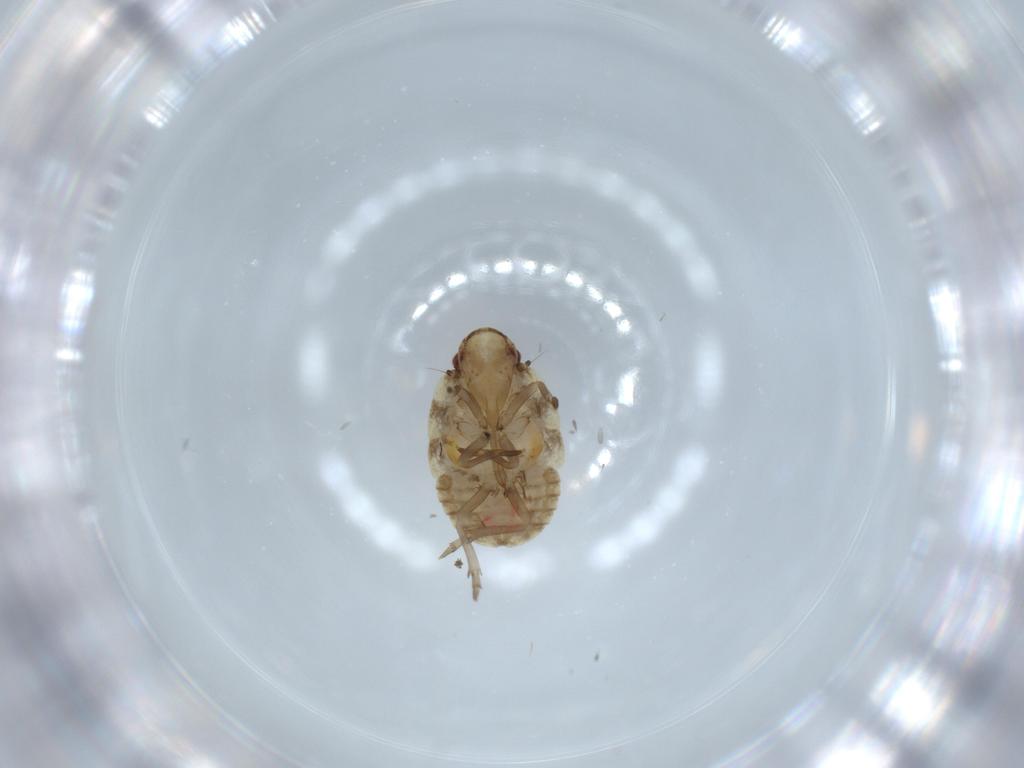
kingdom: Animalia
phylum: Arthropoda
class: Insecta
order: Hemiptera
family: Flatidae
